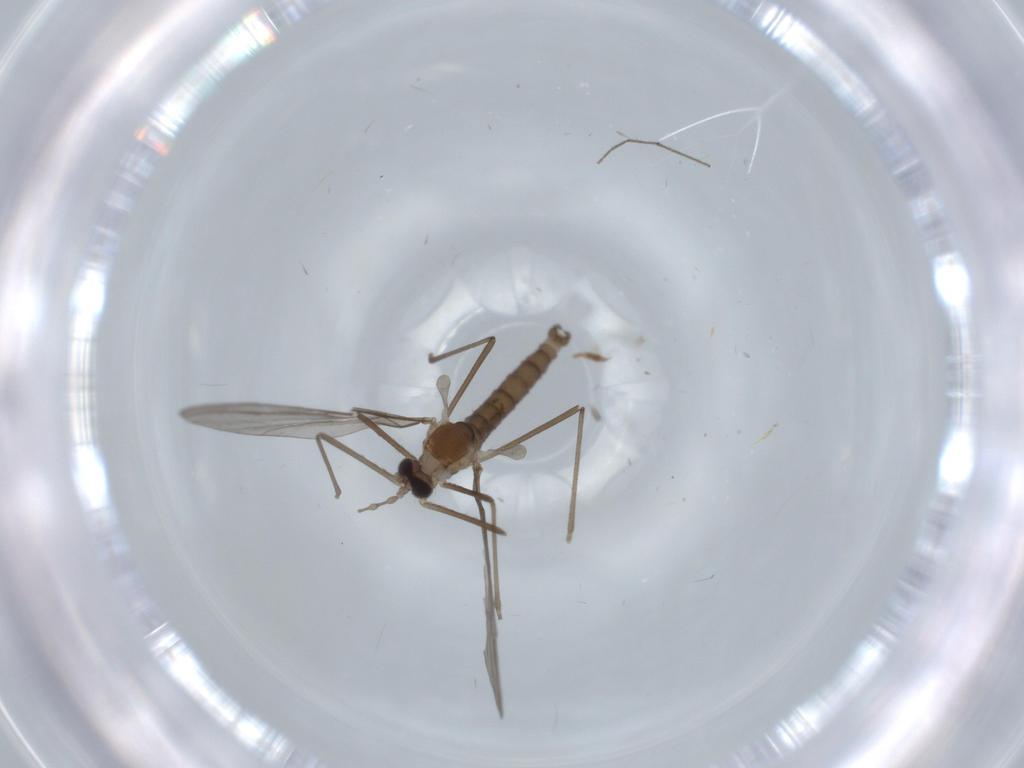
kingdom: Animalia
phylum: Arthropoda
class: Insecta
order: Diptera
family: Cecidomyiidae
